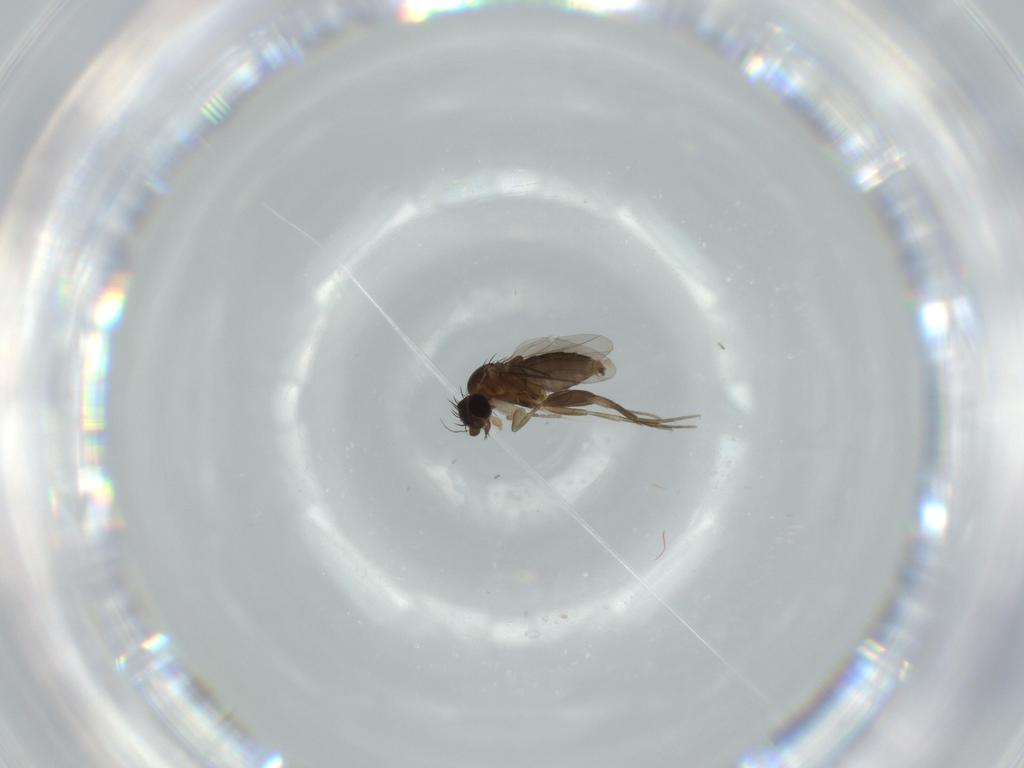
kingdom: Animalia
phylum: Arthropoda
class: Insecta
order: Diptera
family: Phoridae
